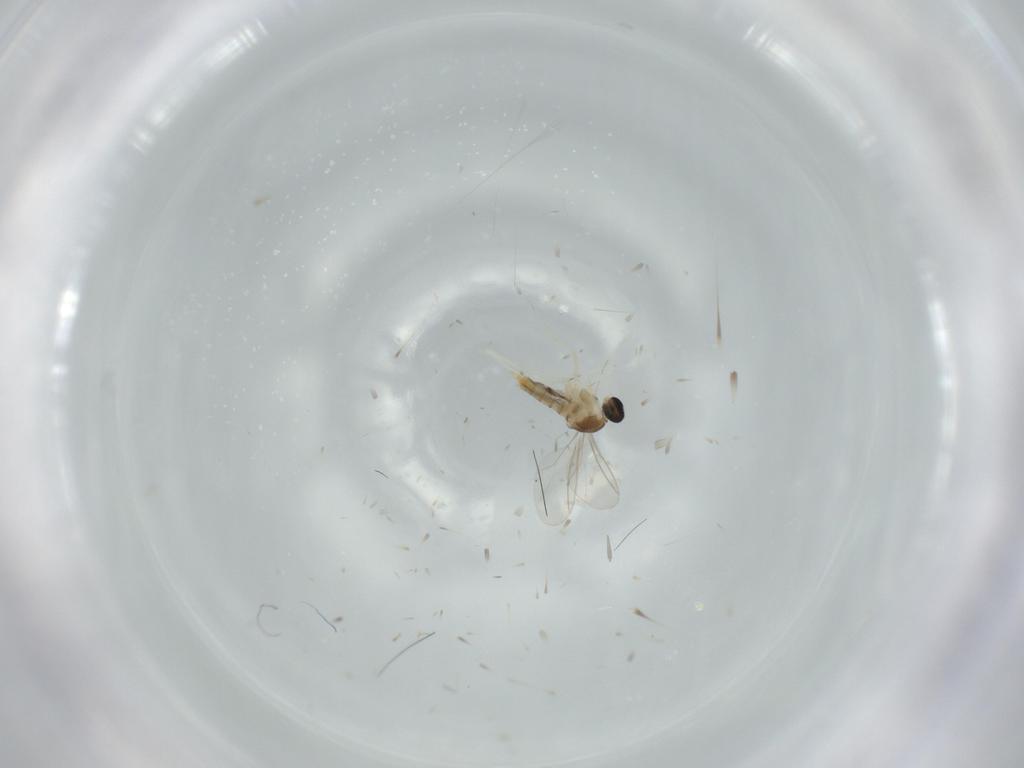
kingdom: Animalia
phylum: Arthropoda
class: Insecta
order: Diptera
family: Cecidomyiidae
